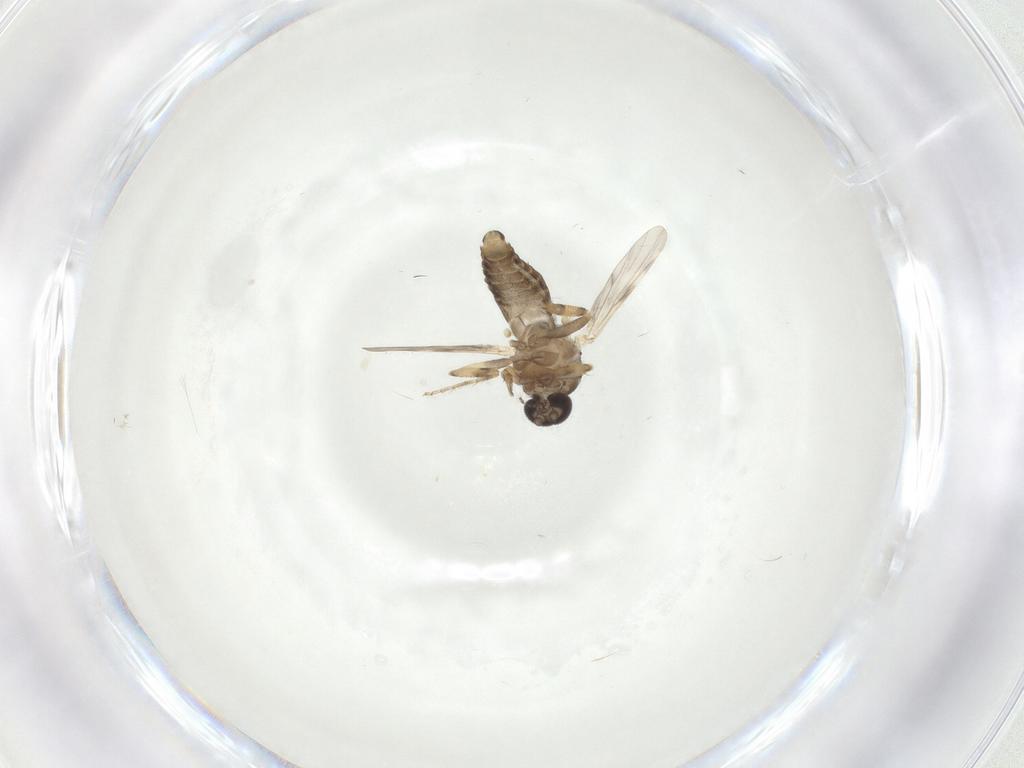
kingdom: Animalia
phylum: Arthropoda
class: Insecta
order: Diptera
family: Ceratopogonidae
